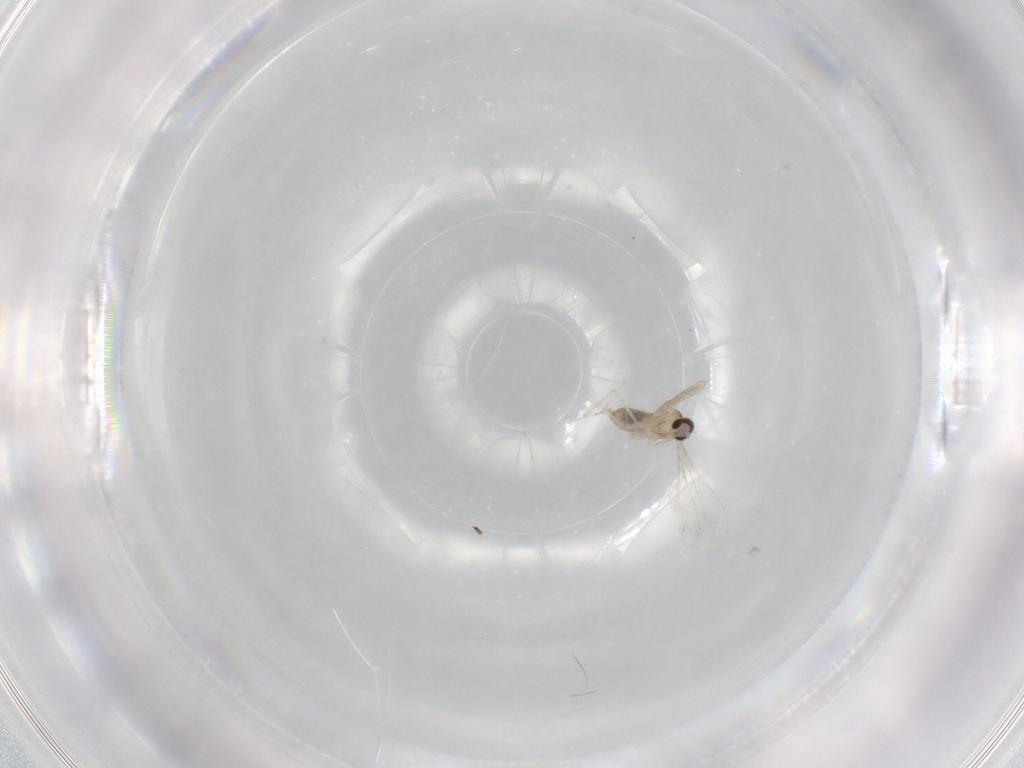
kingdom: Animalia
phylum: Arthropoda
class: Insecta
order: Diptera
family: Cecidomyiidae
